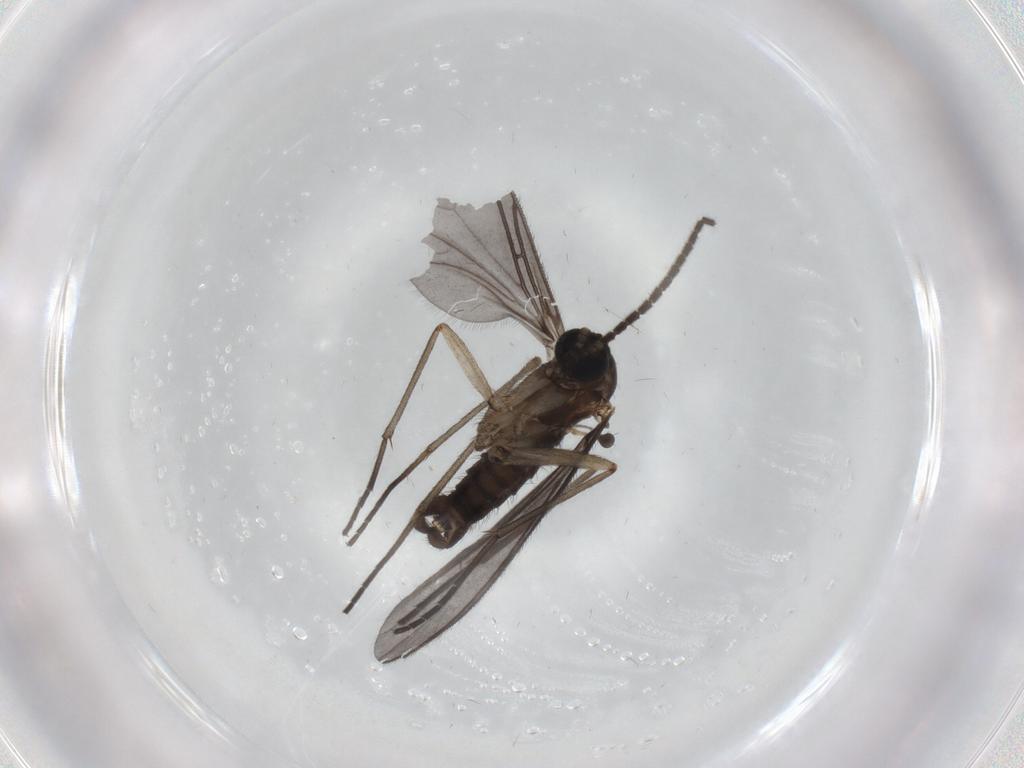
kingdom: Animalia
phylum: Arthropoda
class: Insecta
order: Diptera
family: Sciaridae
